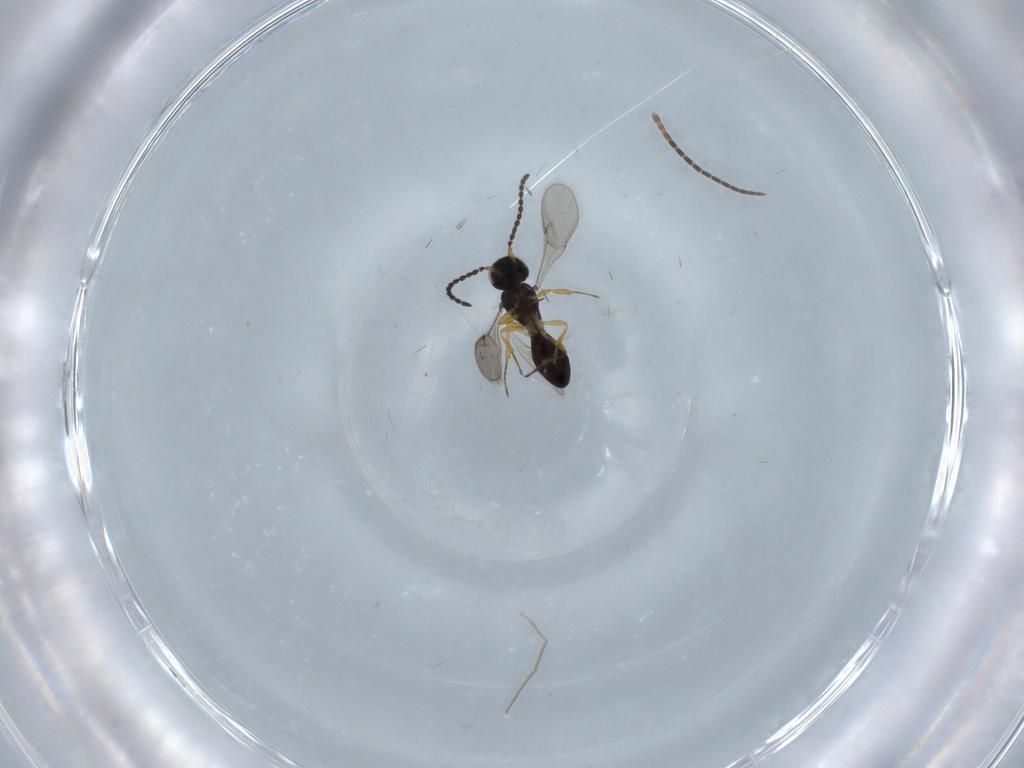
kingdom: Animalia
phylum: Arthropoda
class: Insecta
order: Hymenoptera
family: Scelionidae
